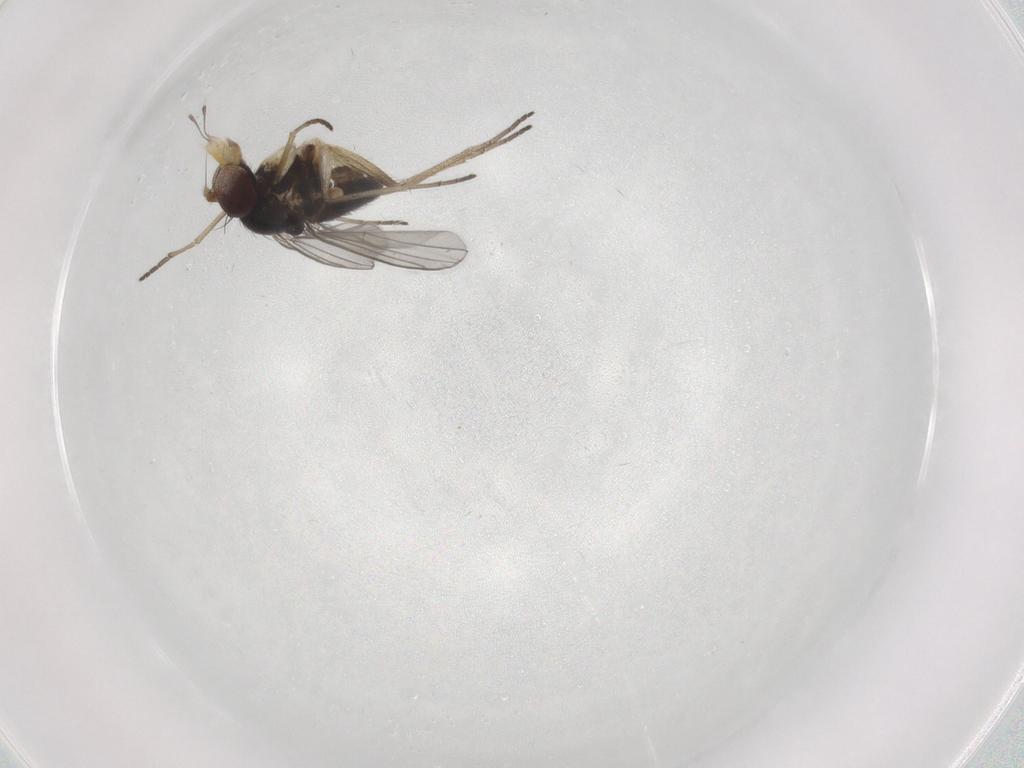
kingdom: Animalia
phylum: Arthropoda
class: Insecta
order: Diptera
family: Dolichopodidae
